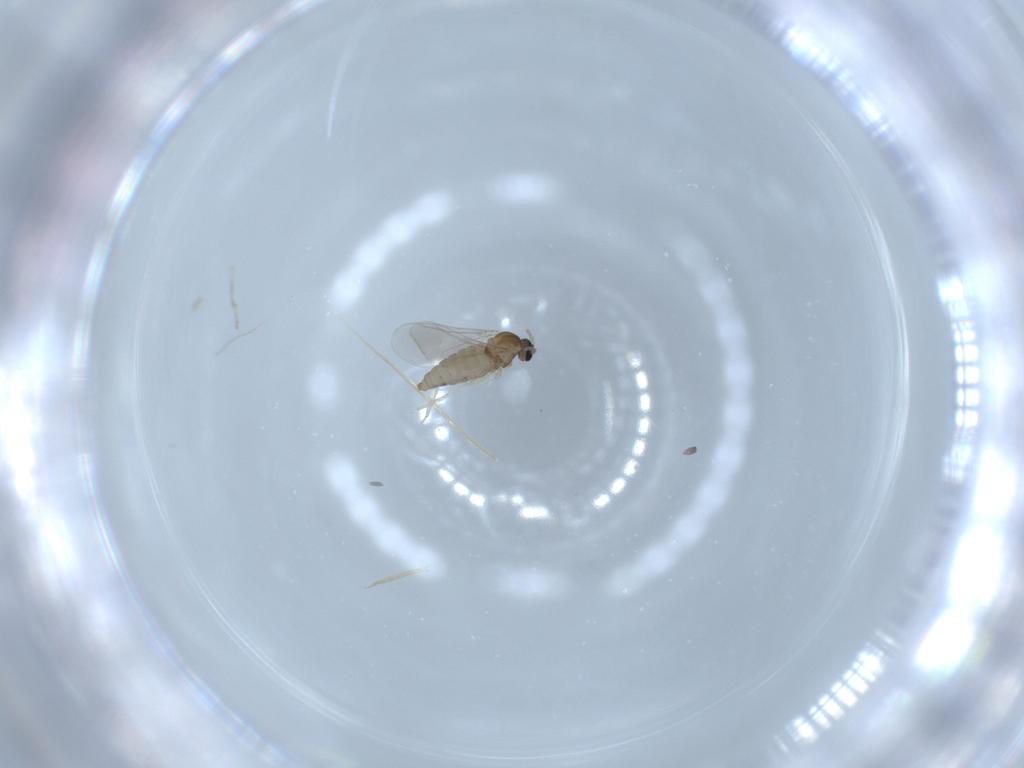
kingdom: Animalia
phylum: Arthropoda
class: Insecta
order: Diptera
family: Cecidomyiidae
